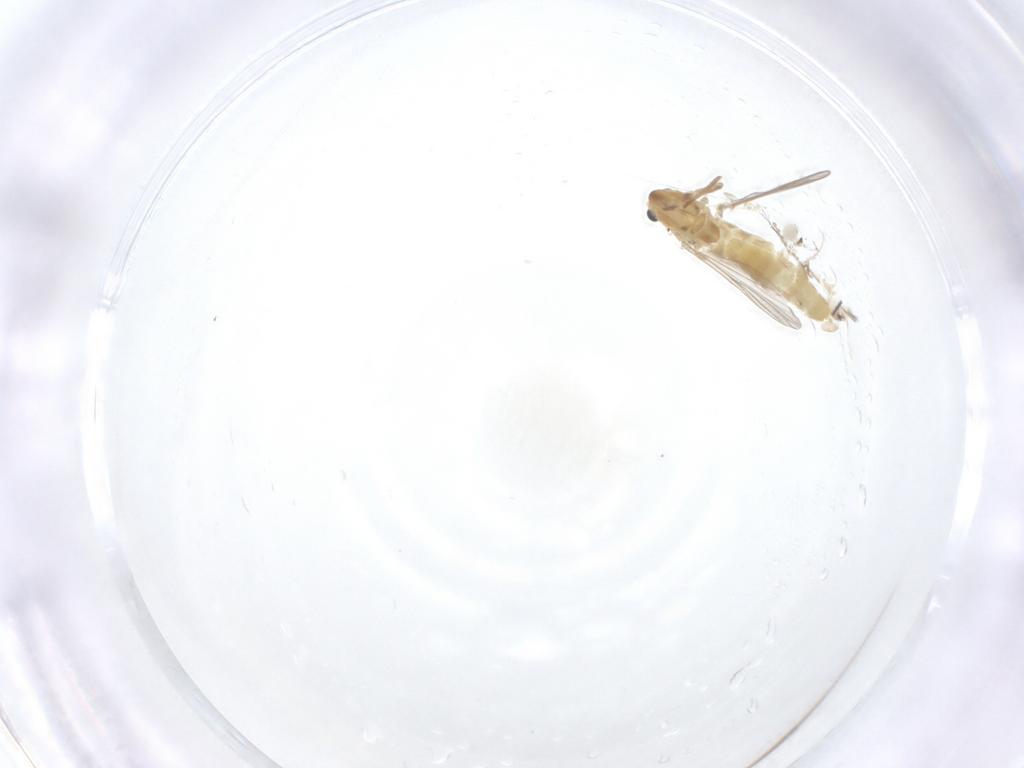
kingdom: Animalia
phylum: Arthropoda
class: Insecta
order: Diptera
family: Chironomidae
